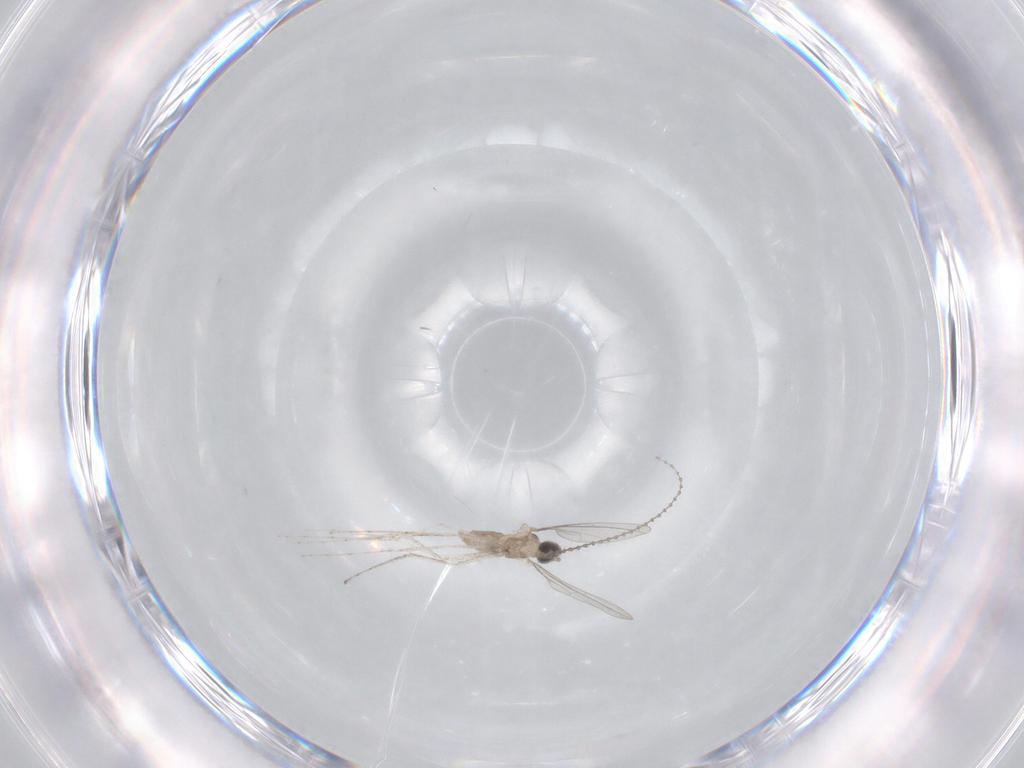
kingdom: Animalia
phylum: Arthropoda
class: Insecta
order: Diptera
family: Cecidomyiidae
